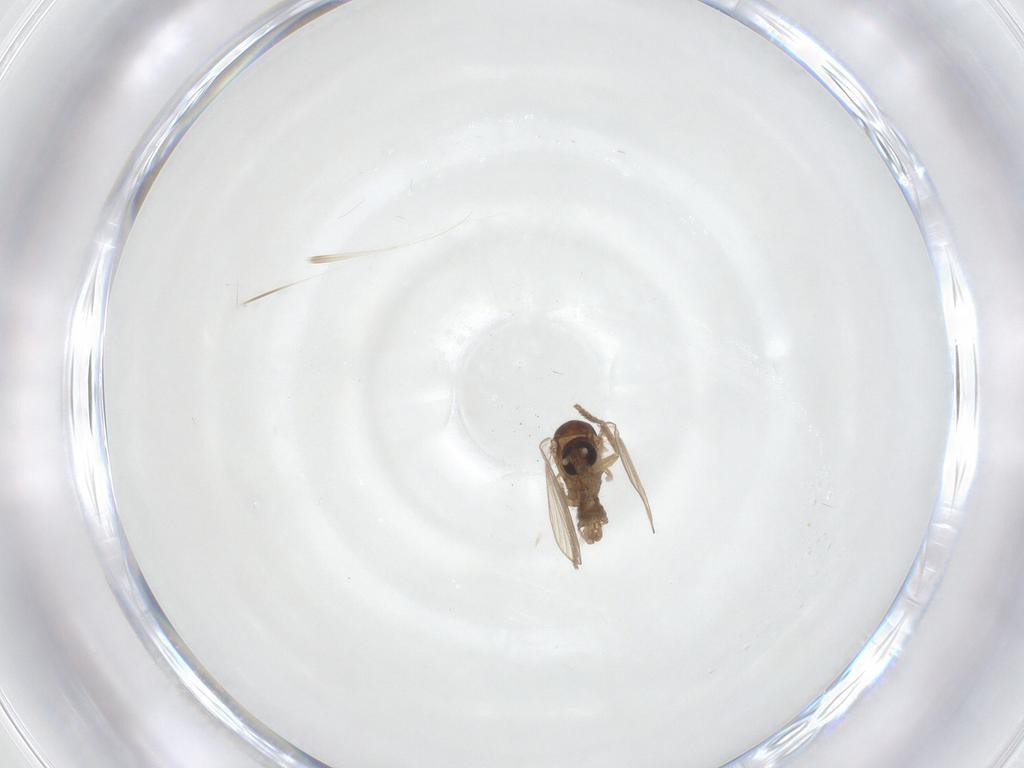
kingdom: Animalia
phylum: Arthropoda
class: Insecta
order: Diptera
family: Psychodidae
